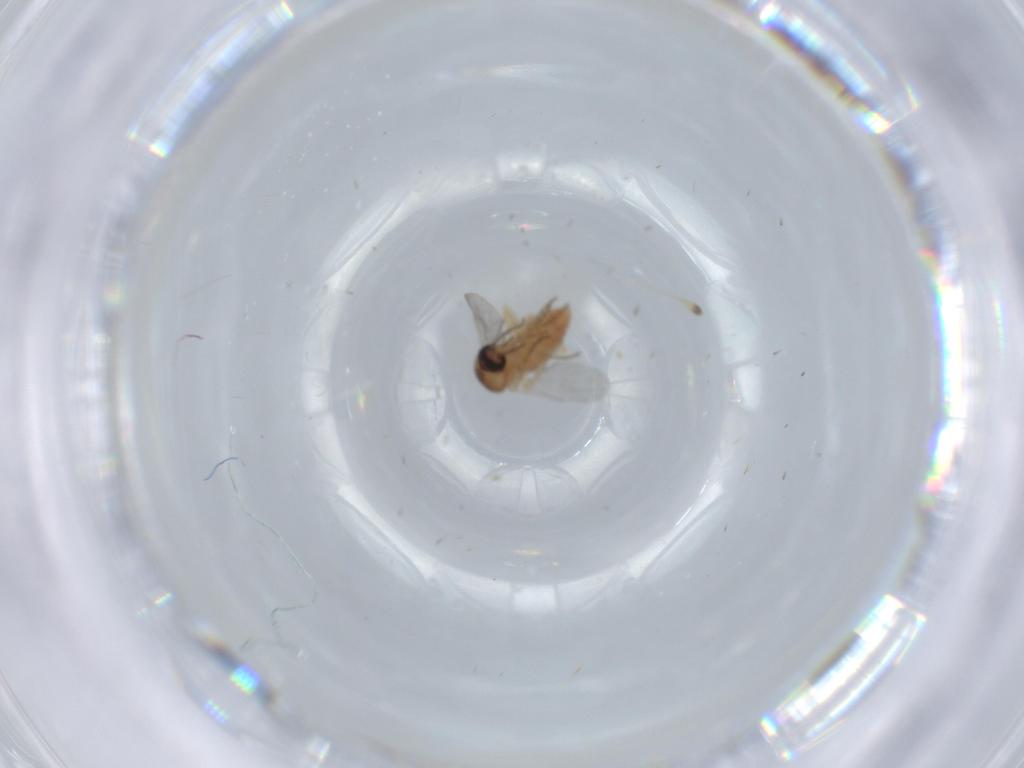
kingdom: Animalia
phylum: Arthropoda
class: Insecta
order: Diptera
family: Ceratopogonidae
